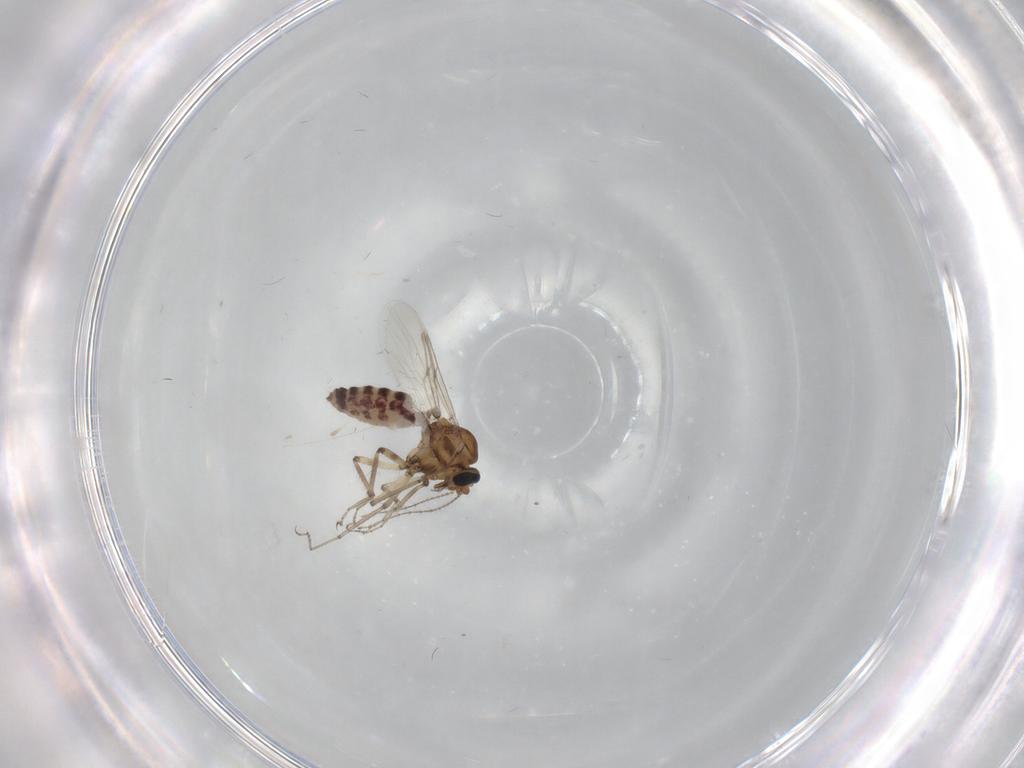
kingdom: Animalia
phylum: Arthropoda
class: Insecta
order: Diptera
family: Ceratopogonidae
